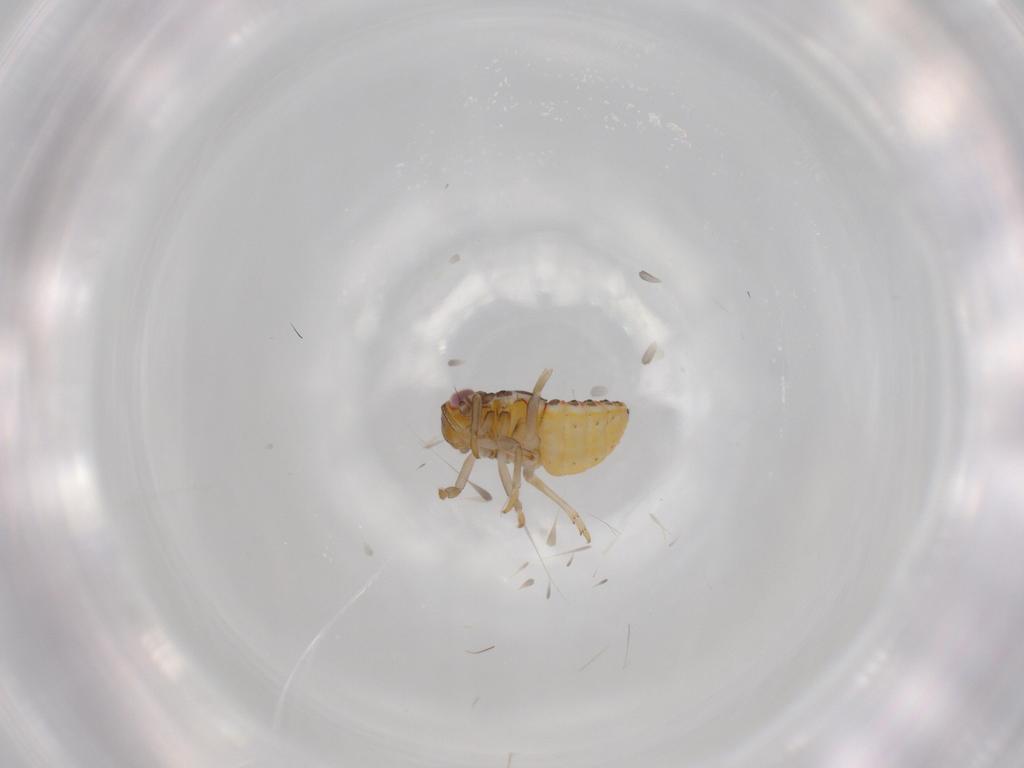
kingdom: Animalia
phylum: Arthropoda
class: Insecta
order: Hemiptera
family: Issidae
